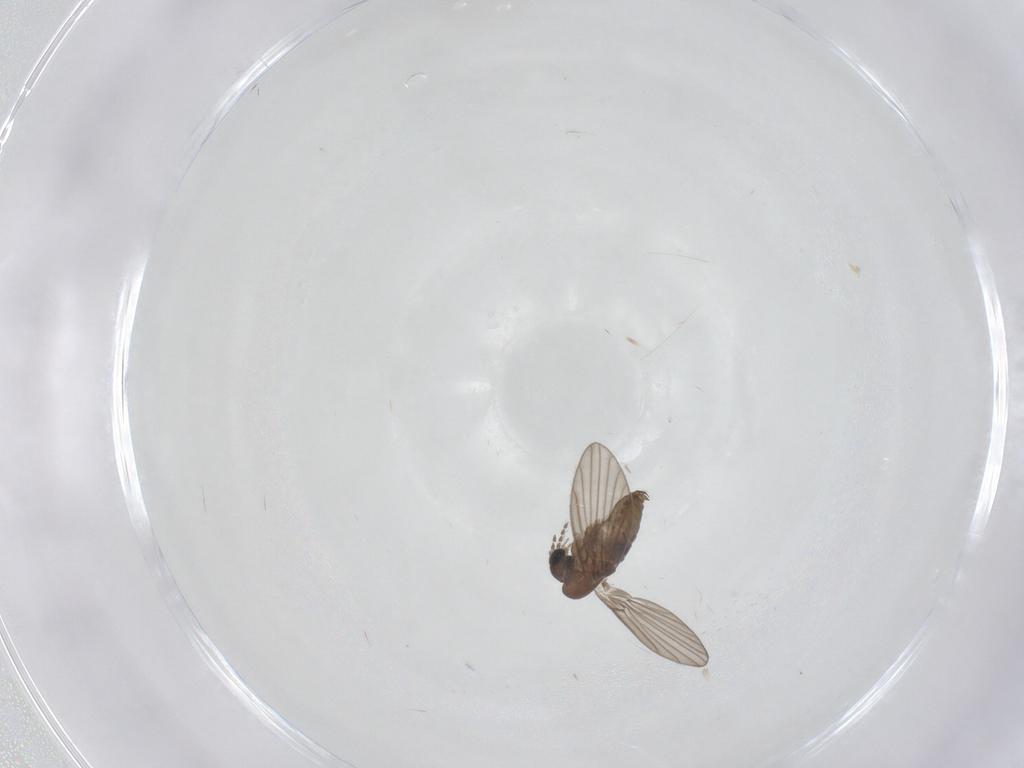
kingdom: Animalia
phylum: Arthropoda
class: Insecta
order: Diptera
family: Psychodidae
